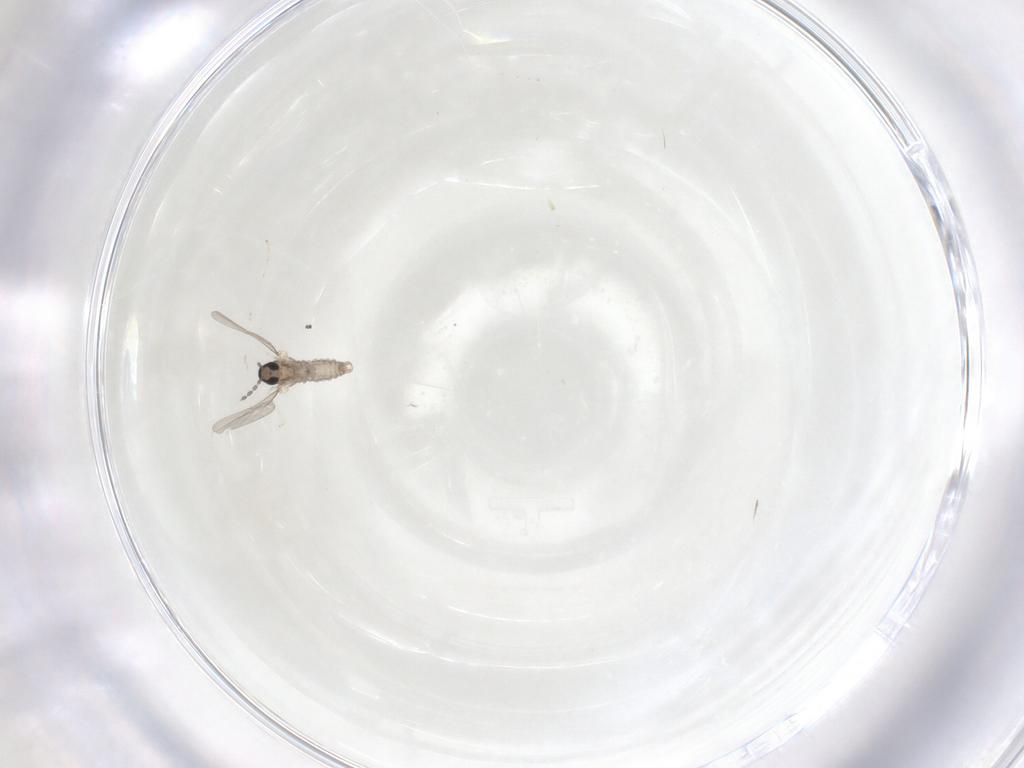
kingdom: Animalia
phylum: Arthropoda
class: Insecta
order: Diptera
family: Cecidomyiidae
